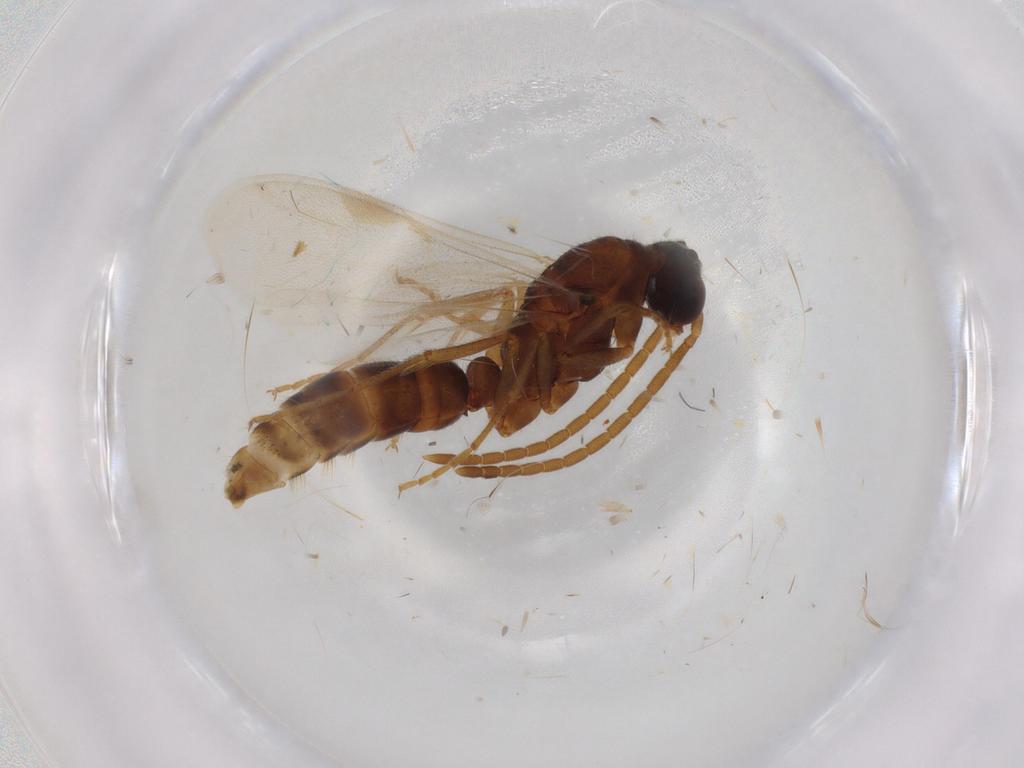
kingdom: Animalia
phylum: Arthropoda
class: Insecta
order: Hymenoptera
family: Formicidae
